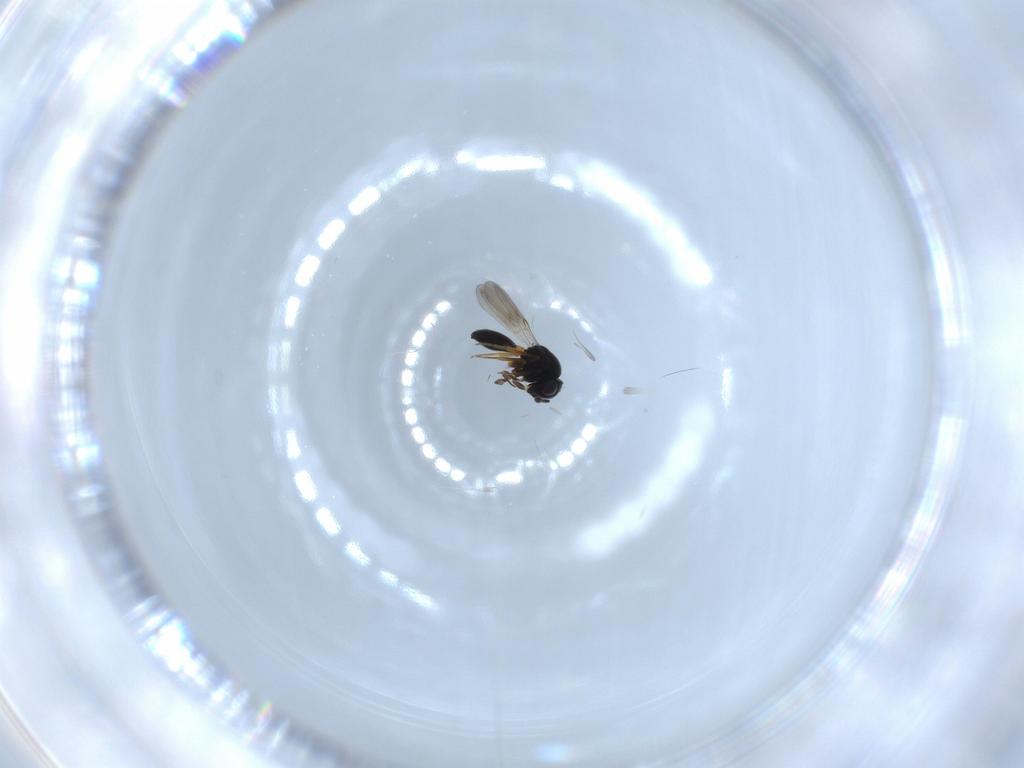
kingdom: Animalia
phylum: Arthropoda
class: Insecta
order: Hymenoptera
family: Scelionidae
